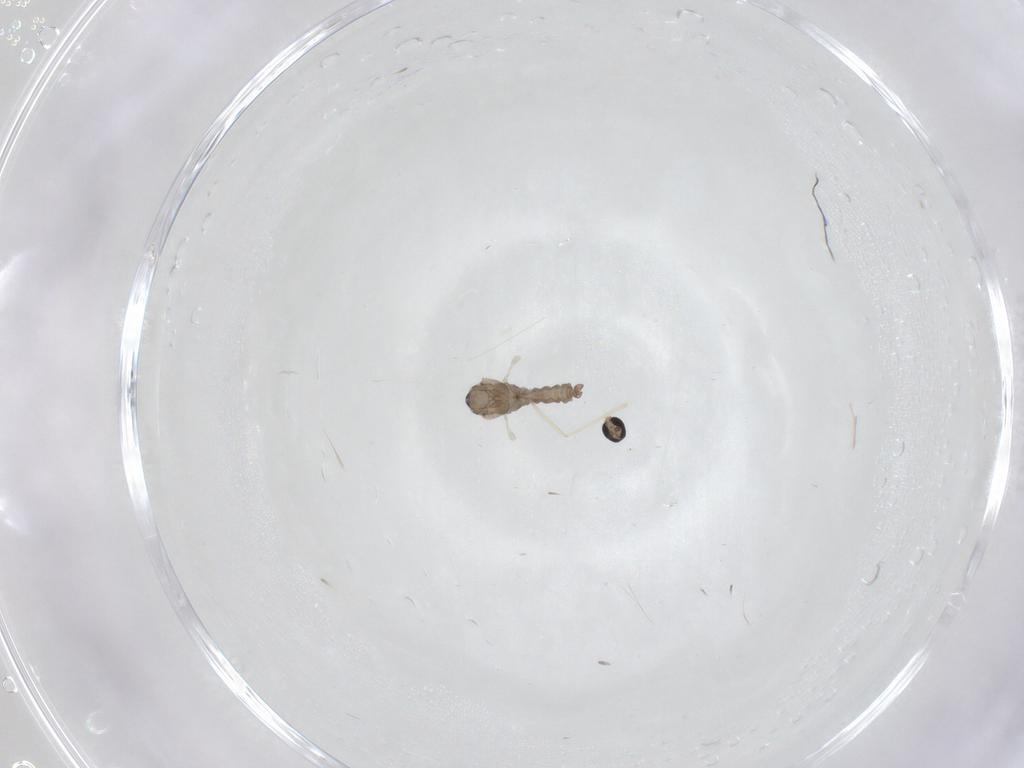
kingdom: Animalia
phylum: Arthropoda
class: Insecta
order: Diptera
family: Cecidomyiidae
